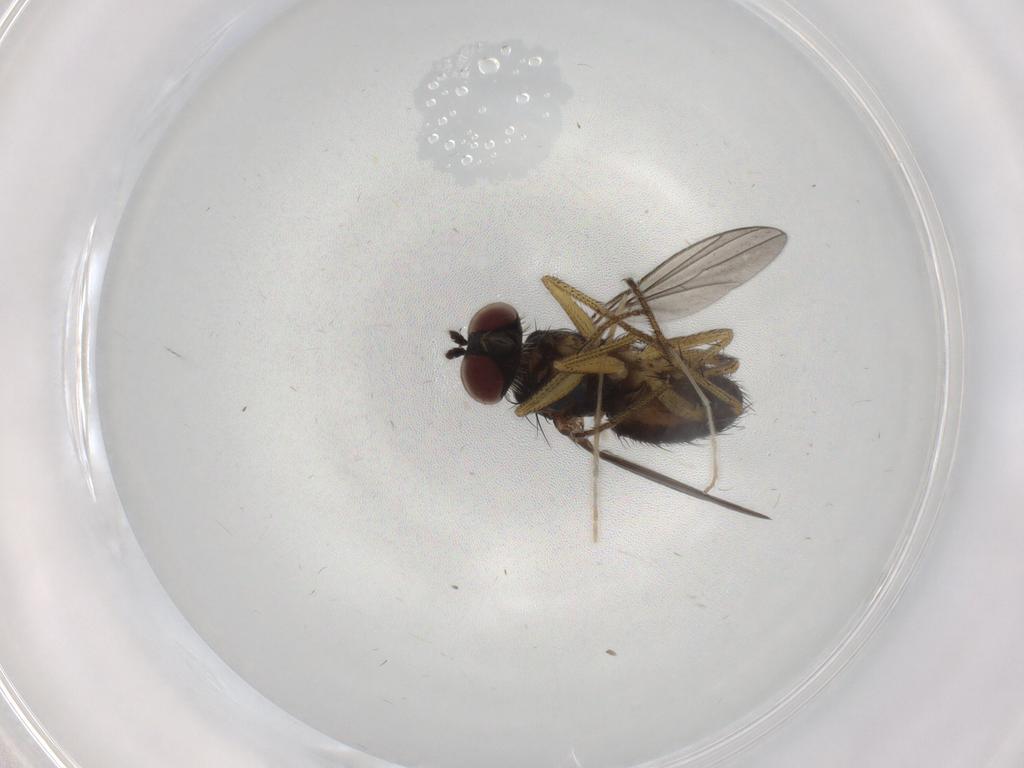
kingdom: Animalia
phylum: Arthropoda
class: Insecta
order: Diptera
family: Dolichopodidae
